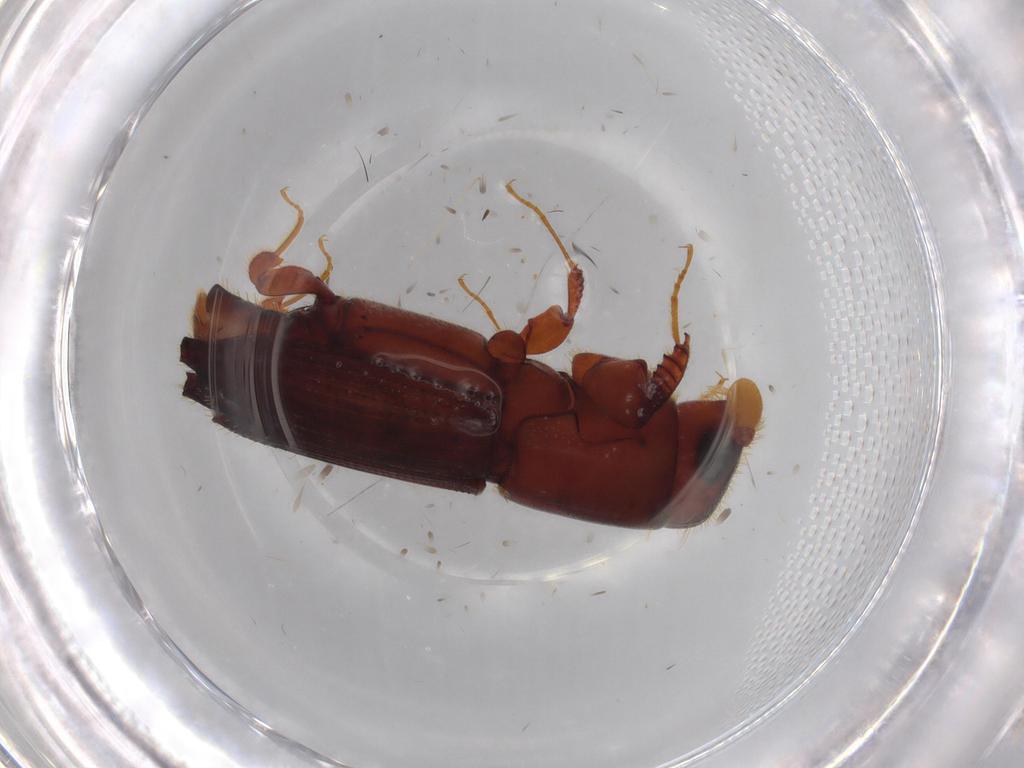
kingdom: Animalia
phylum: Arthropoda
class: Insecta
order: Coleoptera
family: Curculionidae
